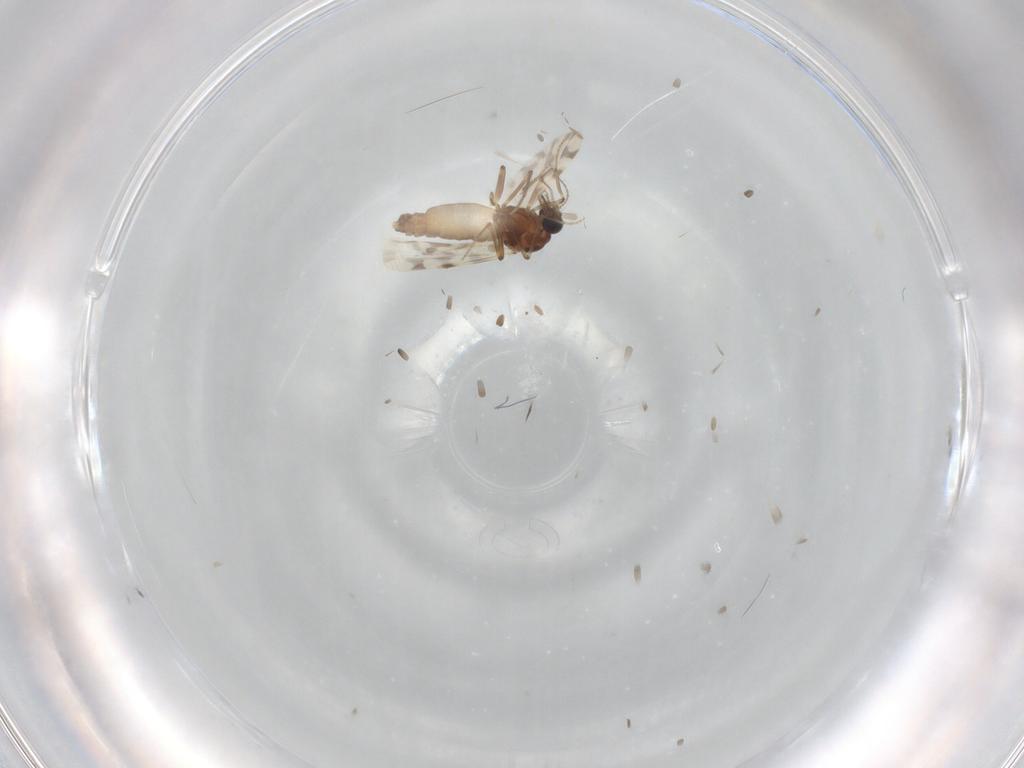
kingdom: Animalia
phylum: Arthropoda
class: Insecta
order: Diptera
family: Ceratopogonidae
